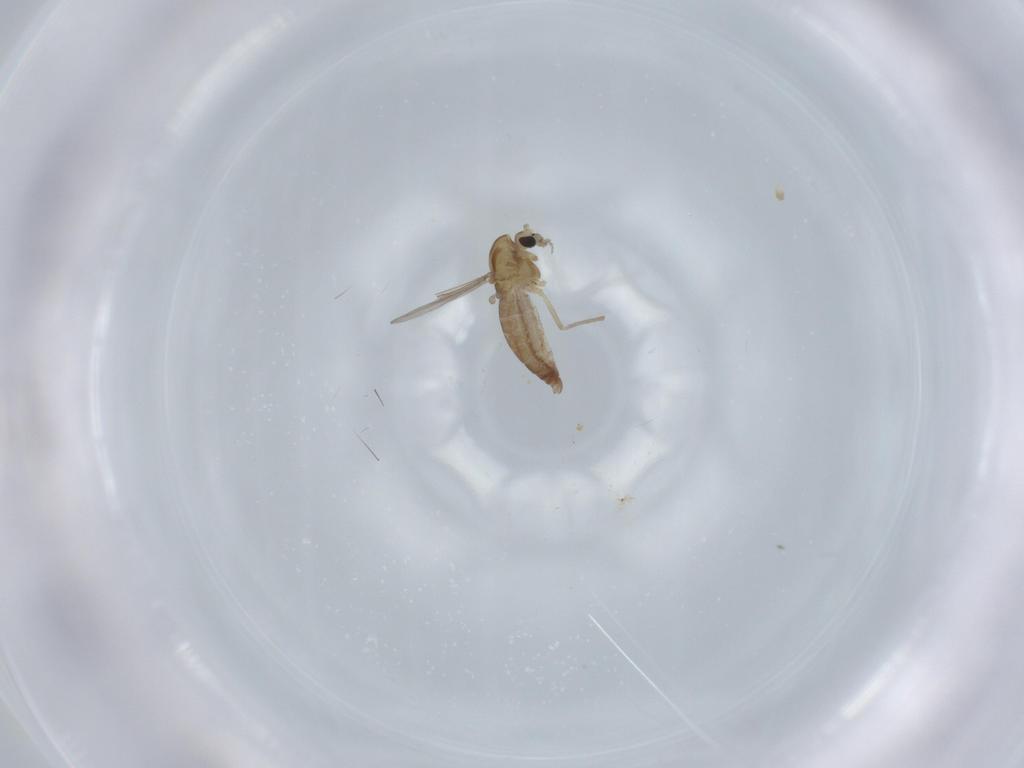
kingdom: Animalia
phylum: Arthropoda
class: Insecta
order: Diptera
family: Chironomidae
